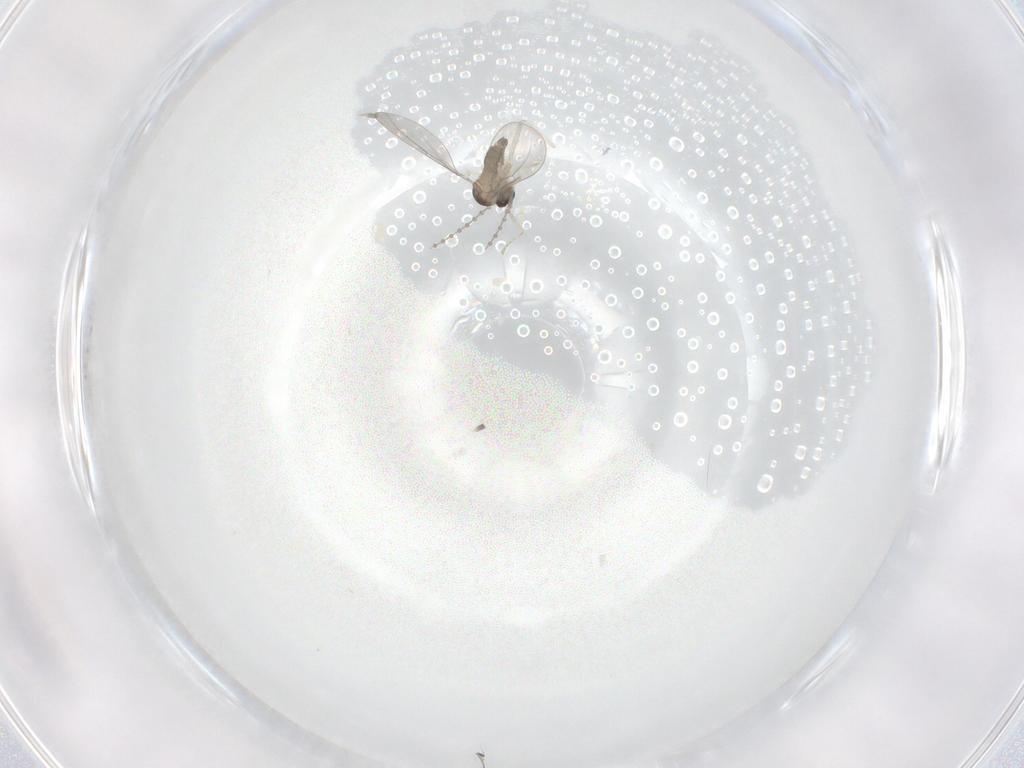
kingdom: Animalia
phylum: Arthropoda
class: Insecta
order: Diptera
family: Cecidomyiidae
